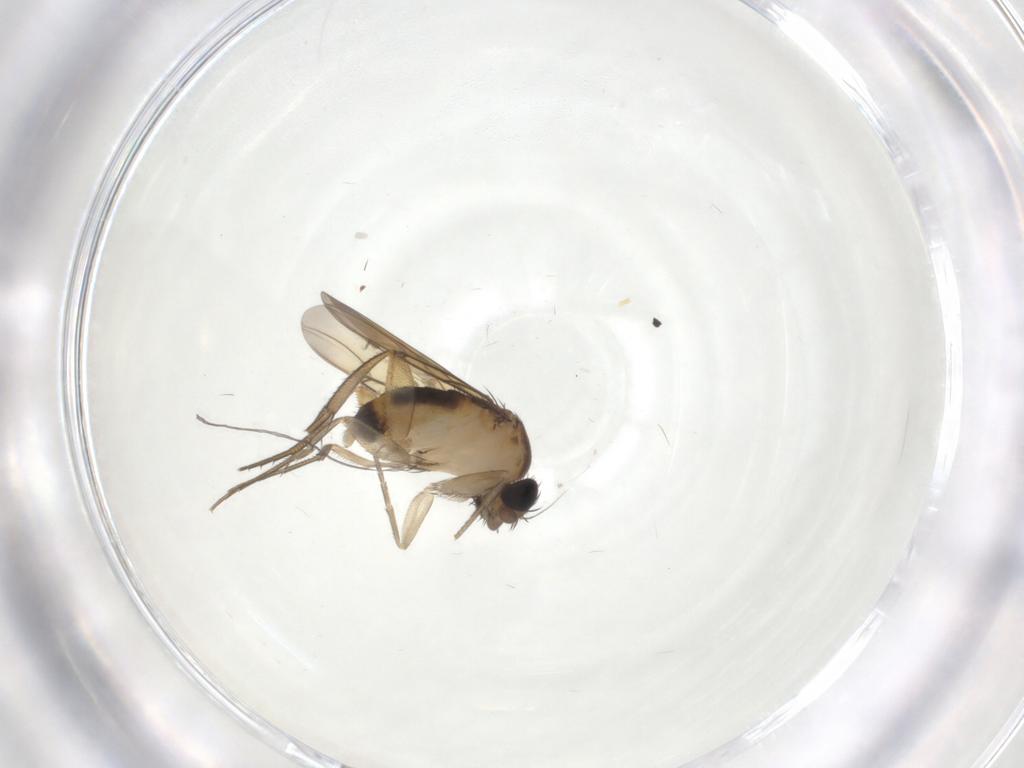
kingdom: Animalia
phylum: Arthropoda
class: Insecta
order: Diptera
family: Phoridae
